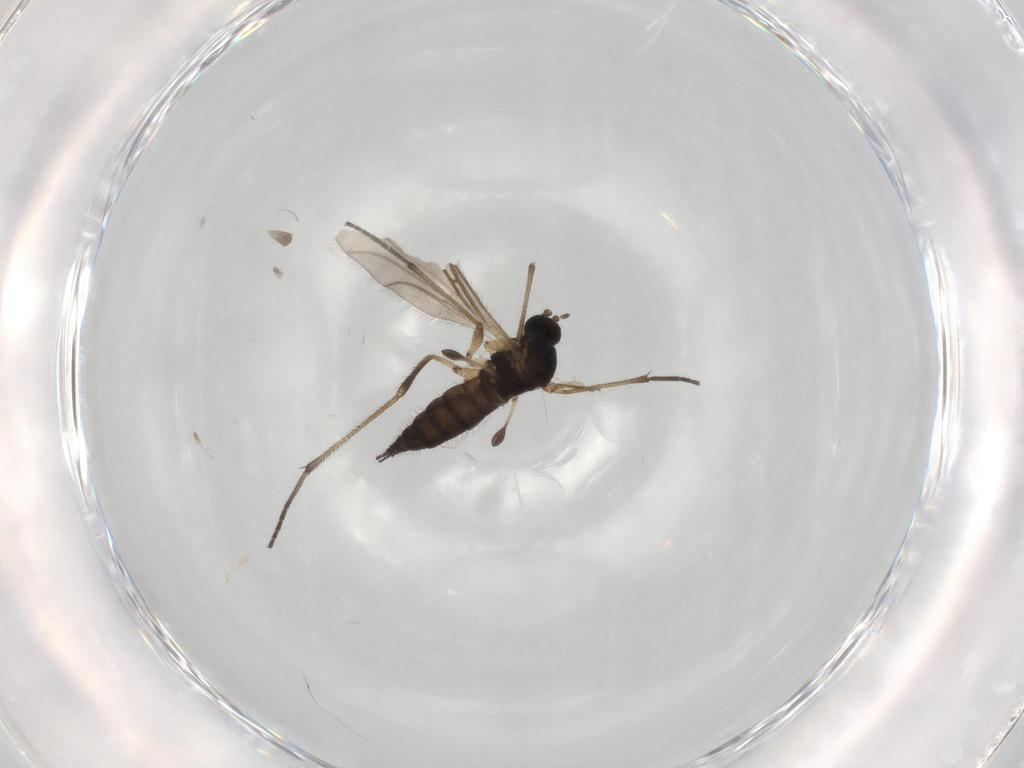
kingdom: Animalia
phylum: Arthropoda
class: Insecta
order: Diptera
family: Sciaridae
